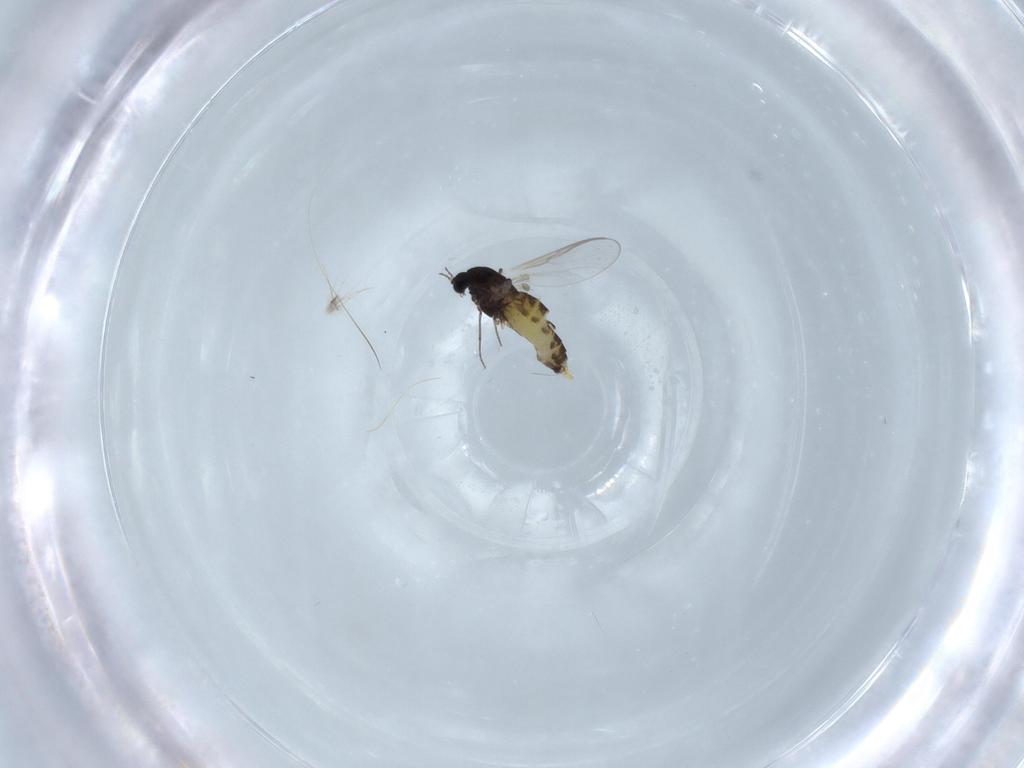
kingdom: Animalia
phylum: Arthropoda
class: Insecta
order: Diptera
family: Chironomidae
